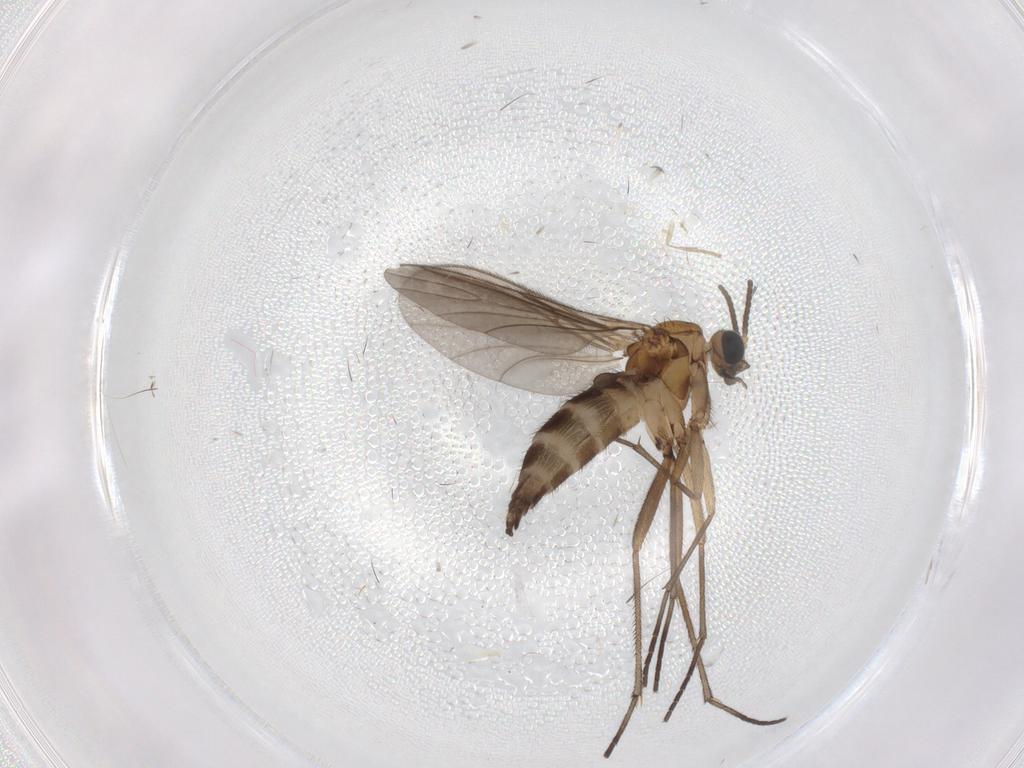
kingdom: Animalia
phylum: Arthropoda
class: Insecta
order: Diptera
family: Sciaridae
